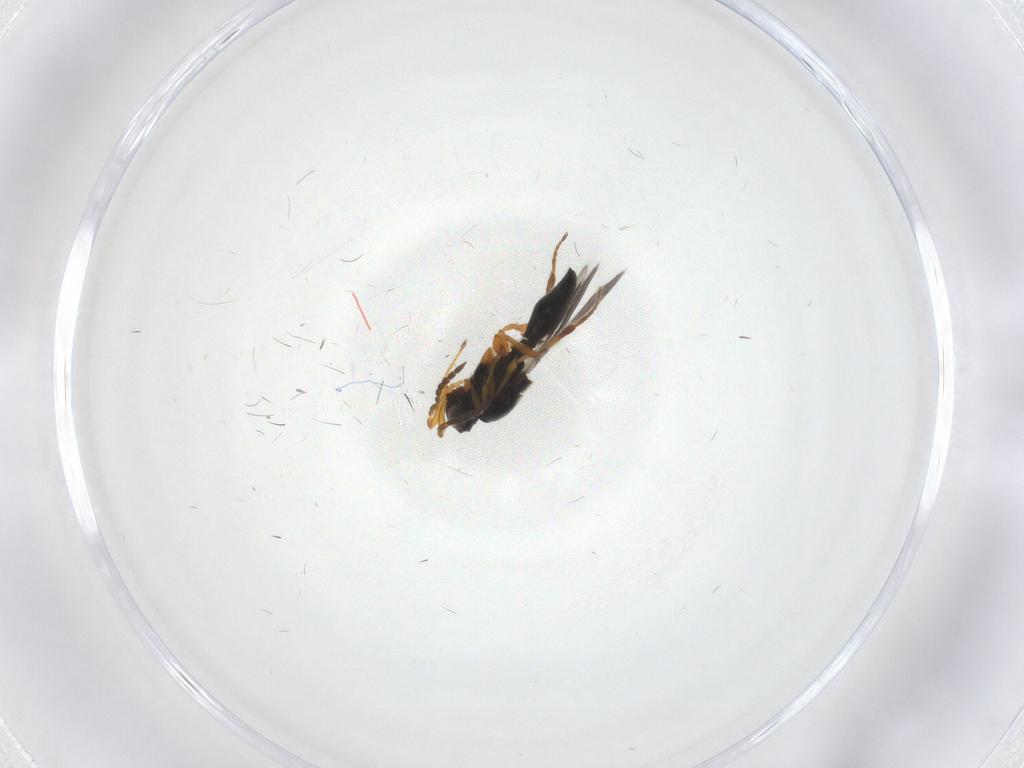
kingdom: Animalia
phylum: Arthropoda
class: Insecta
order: Hymenoptera
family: Platygastridae
